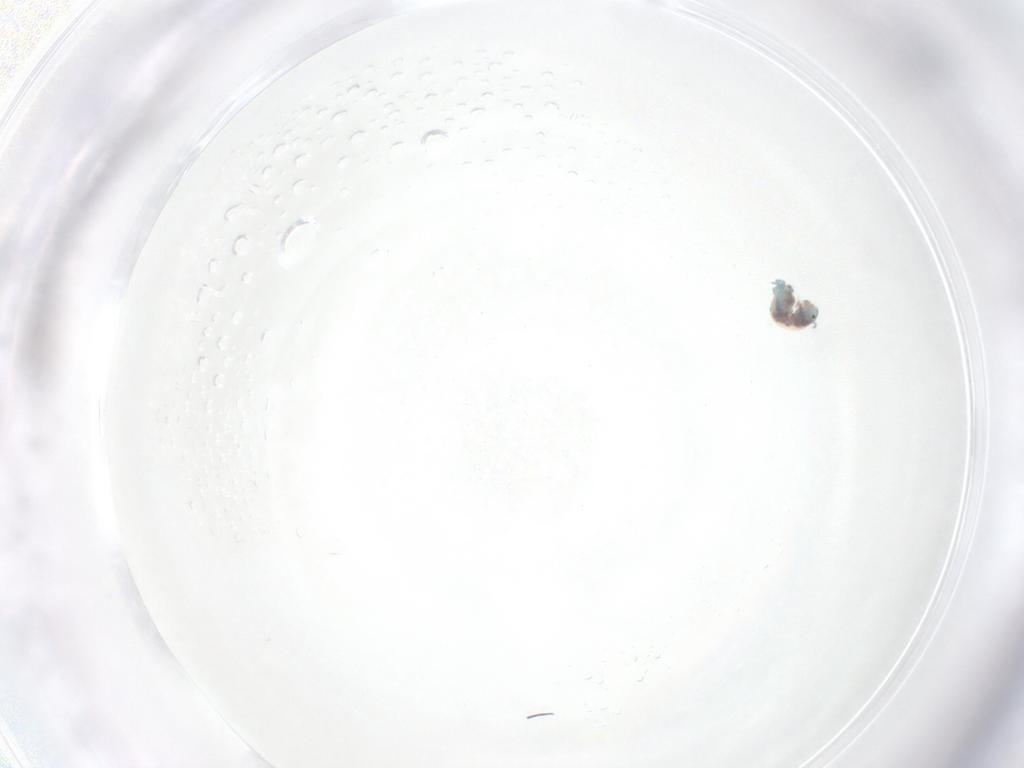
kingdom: Animalia
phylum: Arthropoda
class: Arachnida
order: Trombidiformes
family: Arrenuridae
